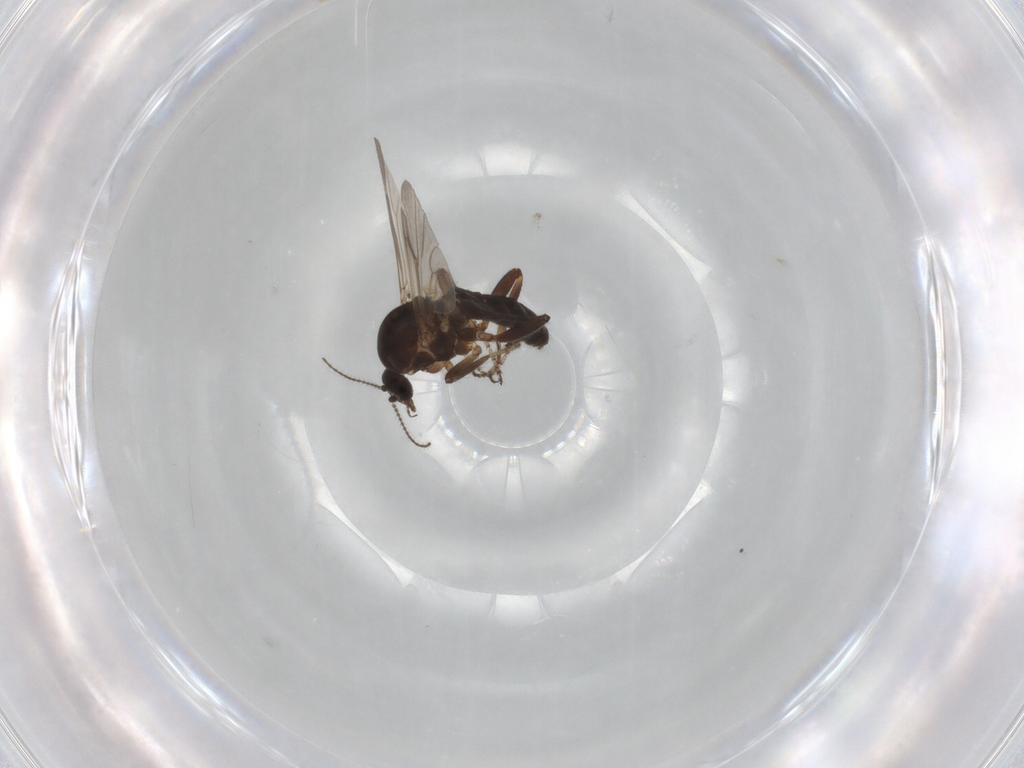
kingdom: Animalia
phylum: Arthropoda
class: Insecta
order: Diptera
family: Ceratopogonidae
